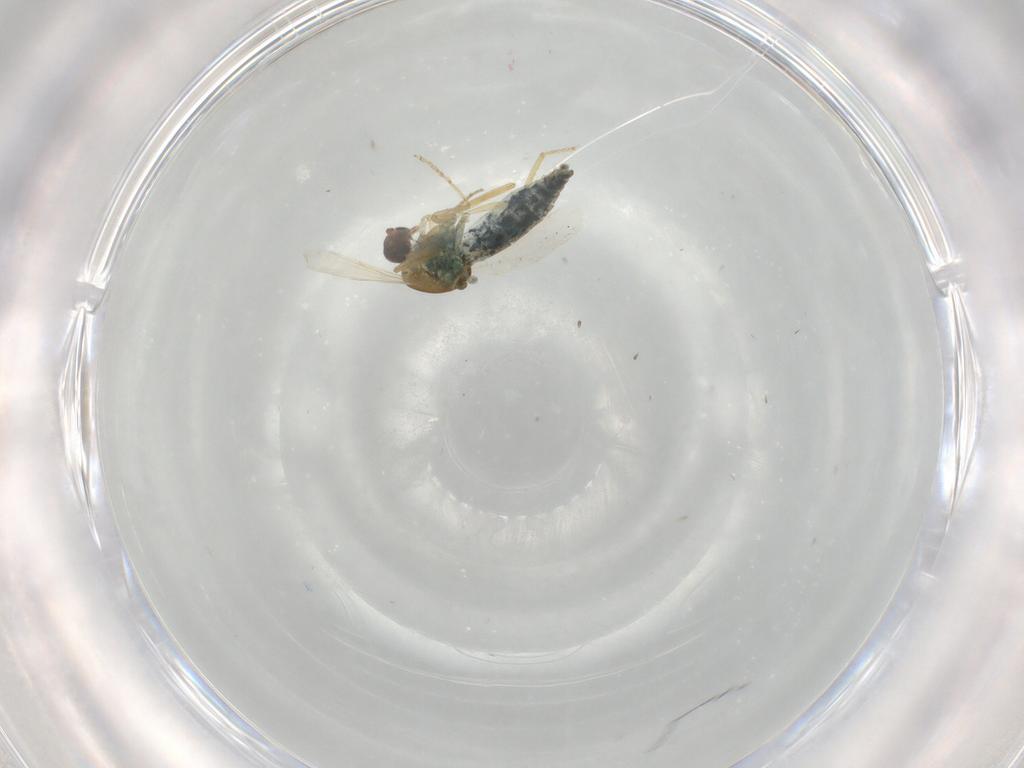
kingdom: Animalia
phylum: Arthropoda
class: Insecta
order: Diptera
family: Ceratopogonidae
